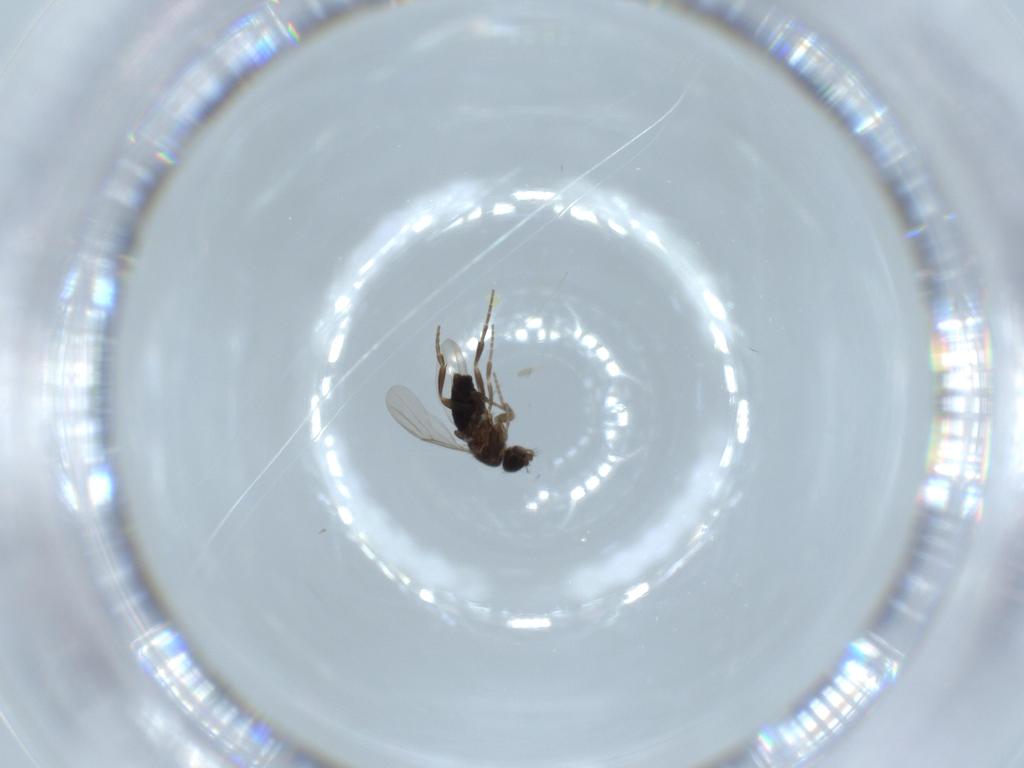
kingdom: Animalia
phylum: Arthropoda
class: Insecta
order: Diptera
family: Phoridae
